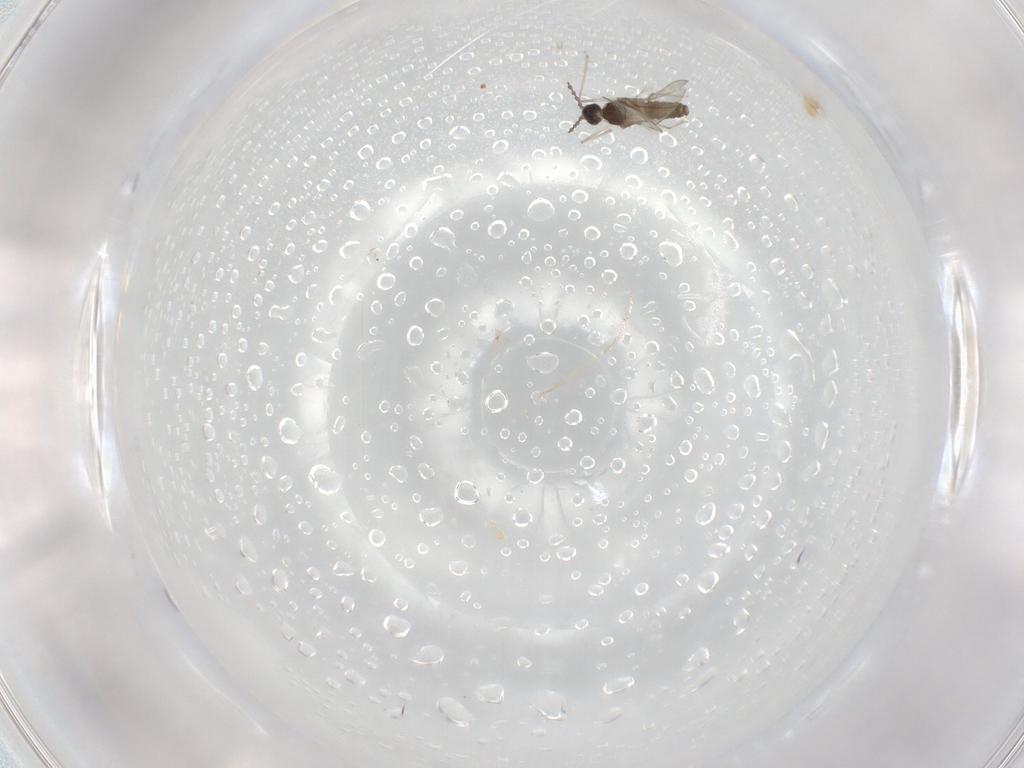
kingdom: Animalia
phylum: Arthropoda
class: Insecta
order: Diptera
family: Cecidomyiidae
